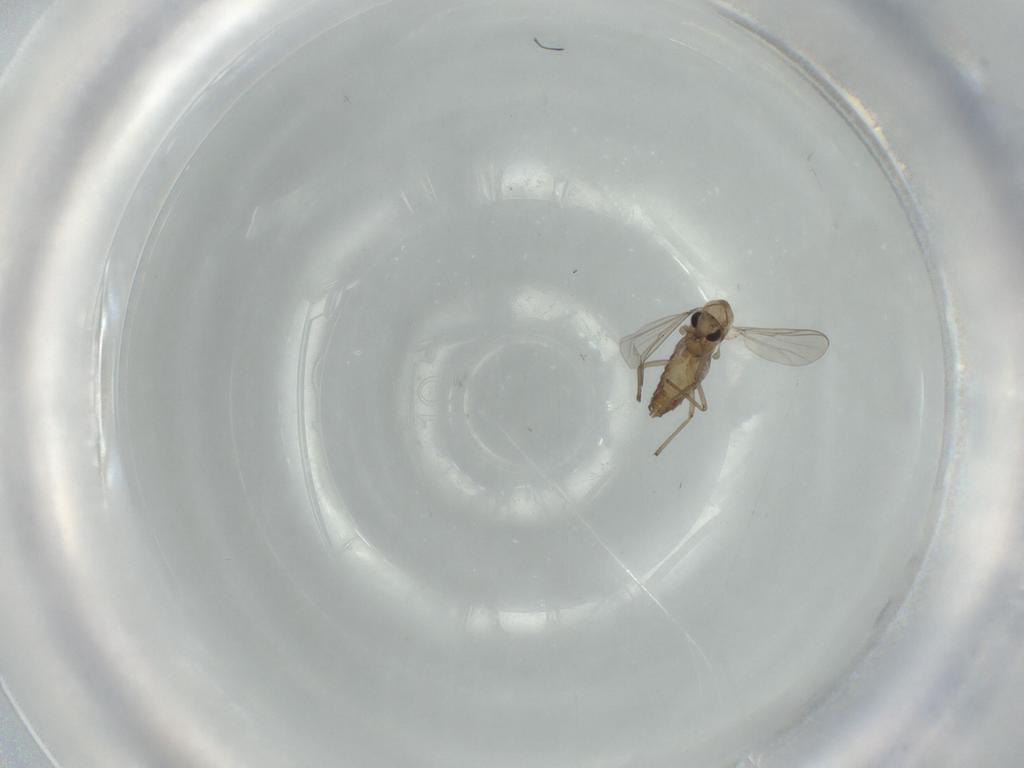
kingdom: Animalia
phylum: Arthropoda
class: Insecta
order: Diptera
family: Chironomidae
